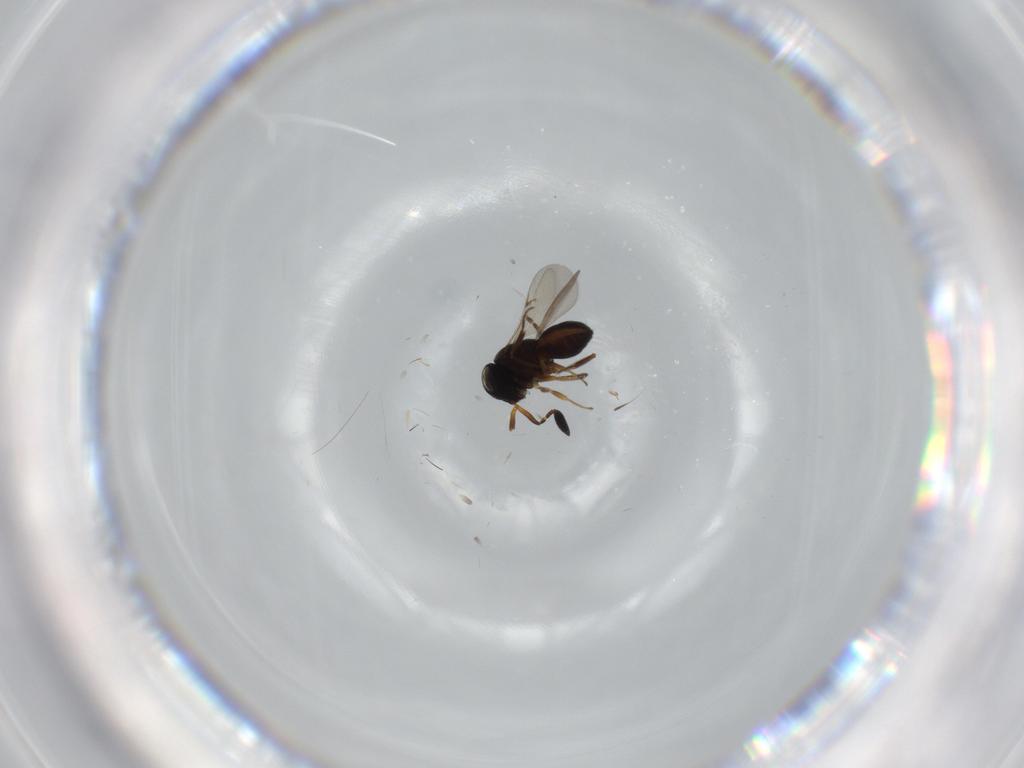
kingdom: Animalia
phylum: Arthropoda
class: Insecta
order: Hymenoptera
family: Scelionidae
